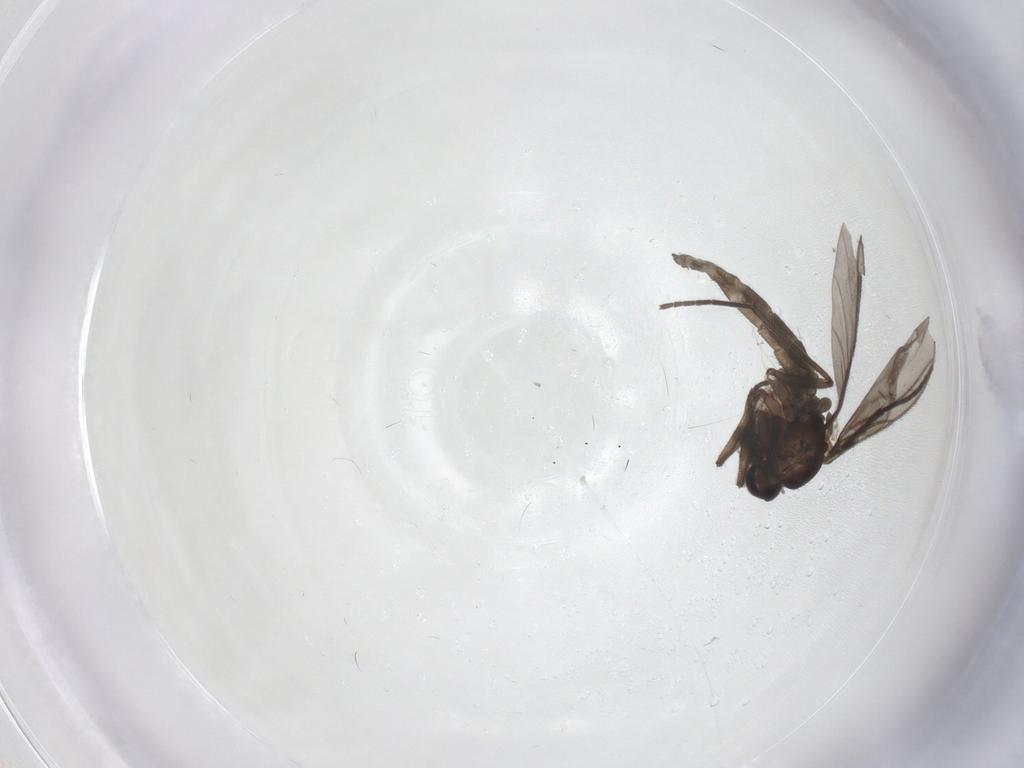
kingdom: Animalia
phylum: Arthropoda
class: Insecta
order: Diptera
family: Sciaridae
